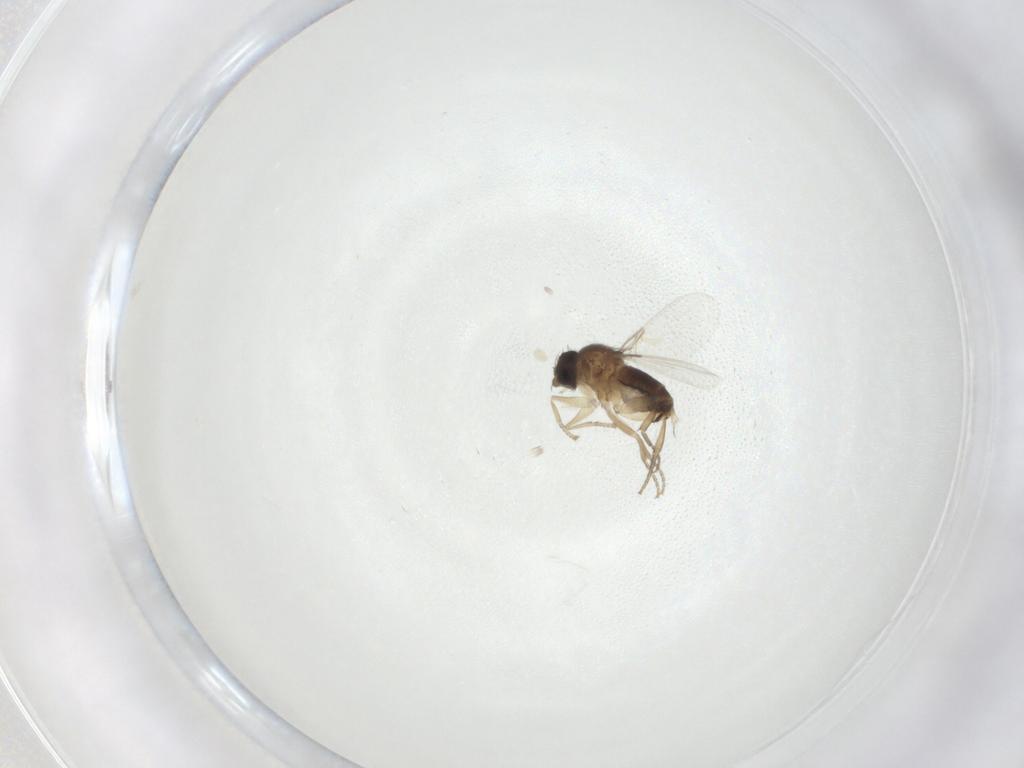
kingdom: Animalia
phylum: Arthropoda
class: Insecta
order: Diptera
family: Phoridae
